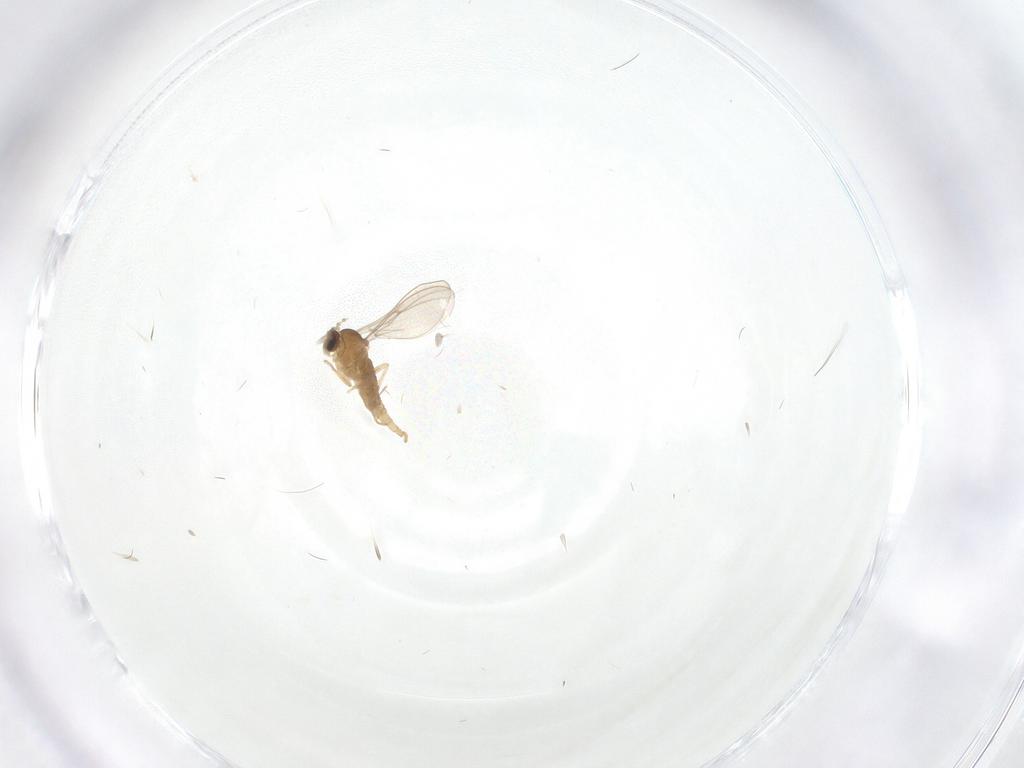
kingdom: Animalia
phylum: Arthropoda
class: Insecta
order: Diptera
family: Cecidomyiidae
